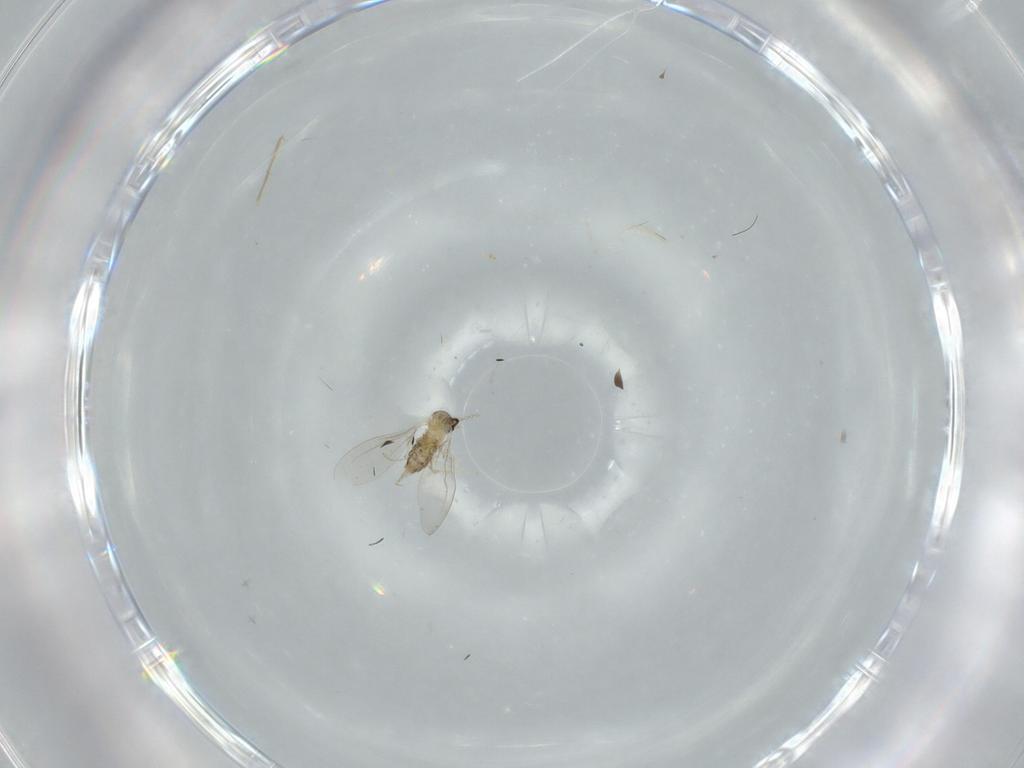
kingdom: Animalia
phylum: Arthropoda
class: Insecta
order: Diptera
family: Cecidomyiidae
